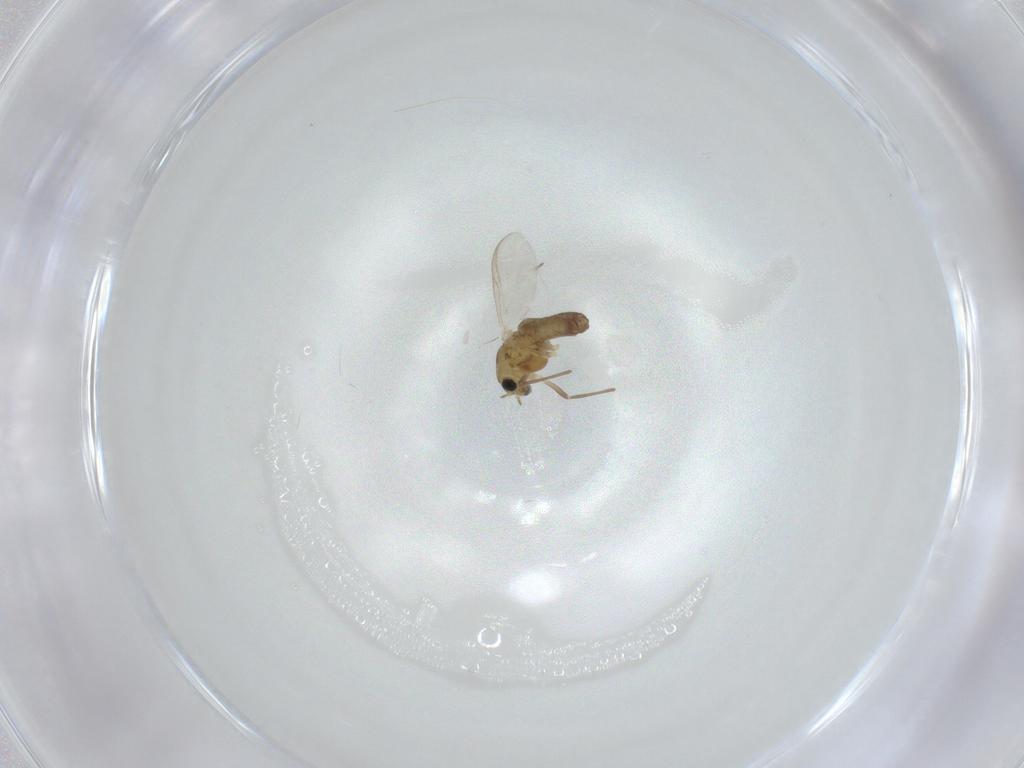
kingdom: Animalia
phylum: Arthropoda
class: Insecta
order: Diptera
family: Chironomidae
